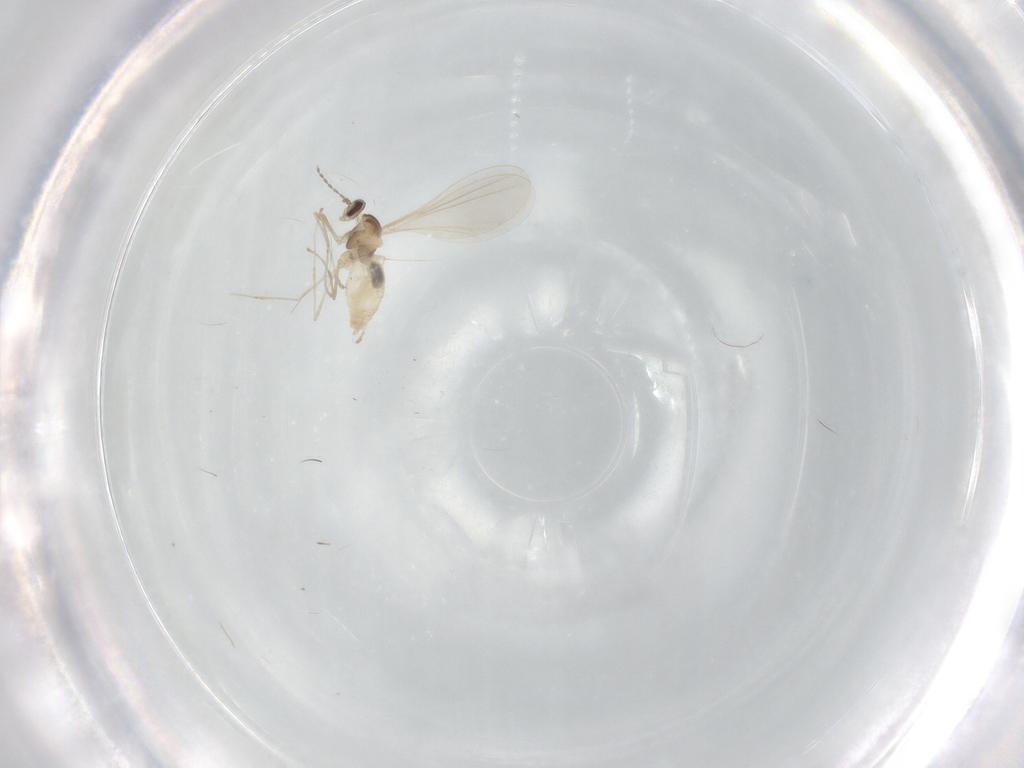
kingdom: Animalia
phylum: Arthropoda
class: Insecta
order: Diptera
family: Cecidomyiidae
